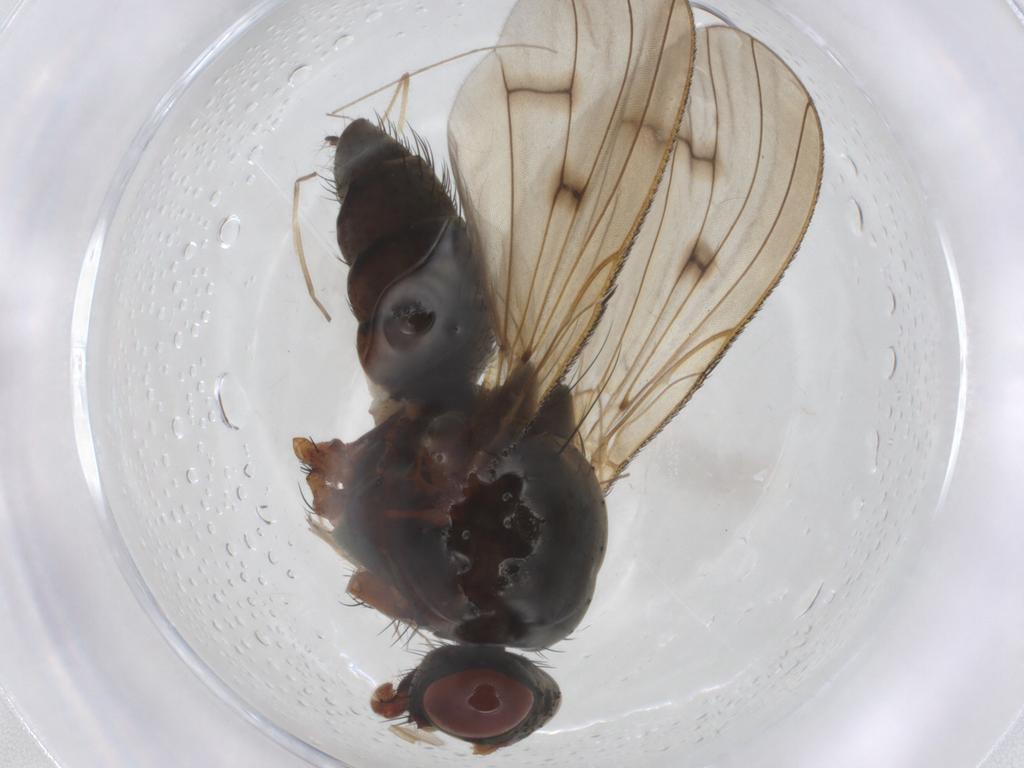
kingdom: Animalia
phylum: Arthropoda
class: Insecta
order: Diptera
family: Chironomidae
